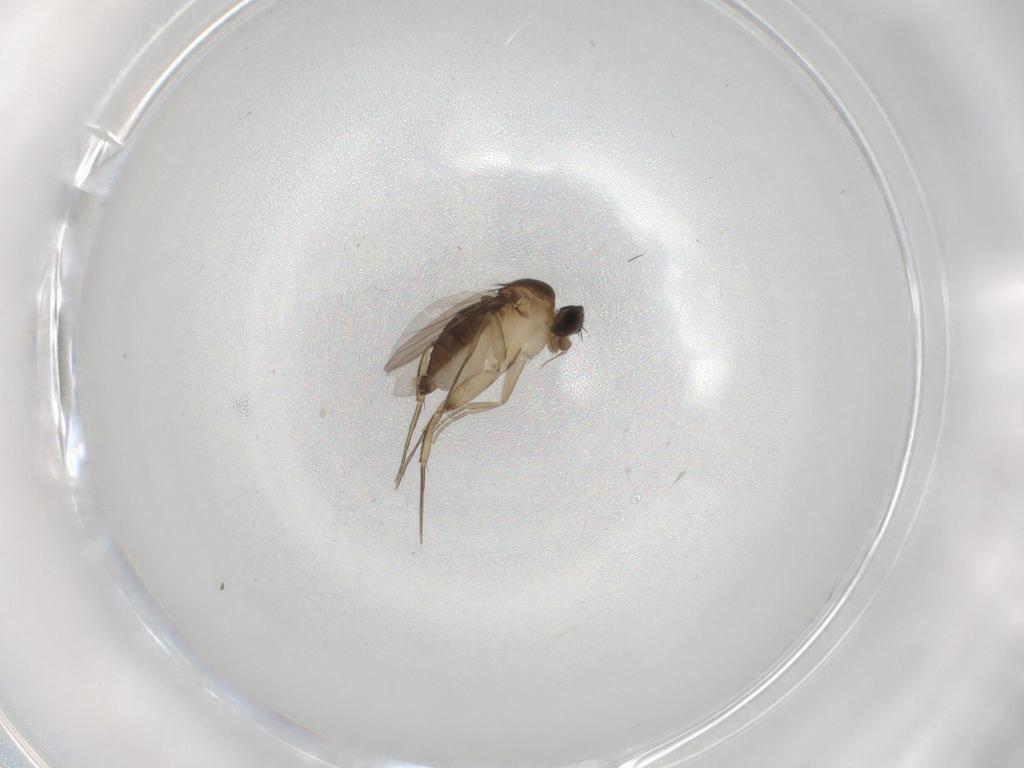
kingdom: Animalia
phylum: Arthropoda
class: Insecta
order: Diptera
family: Phoridae
